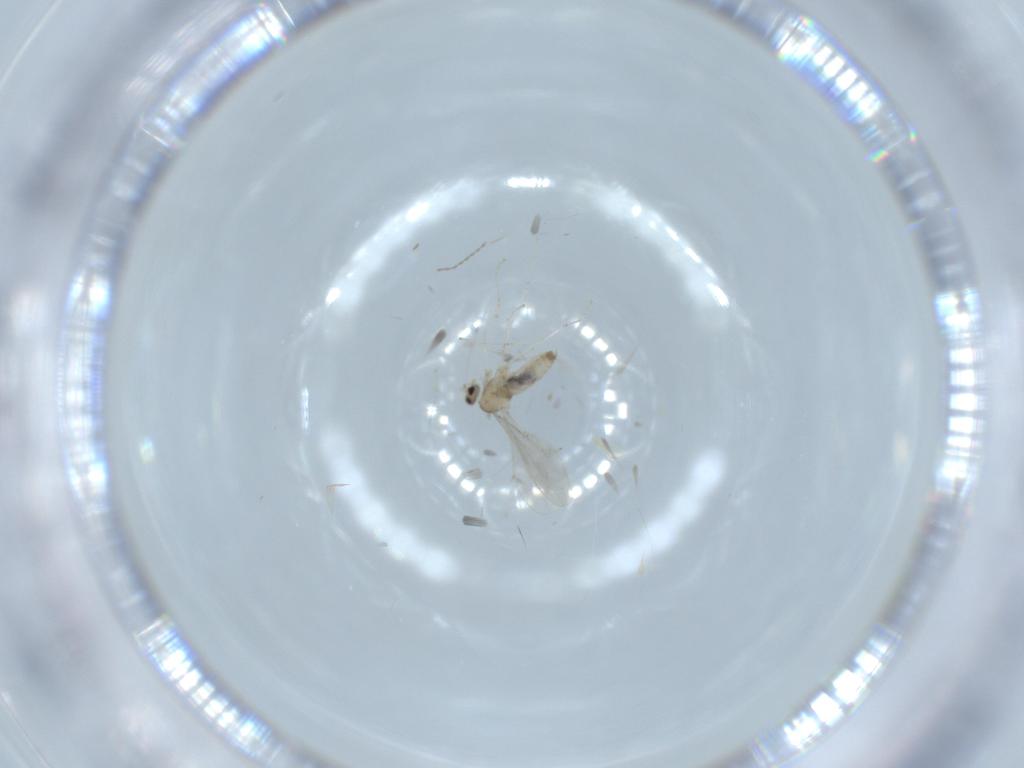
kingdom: Animalia
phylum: Arthropoda
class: Insecta
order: Diptera
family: Cecidomyiidae
